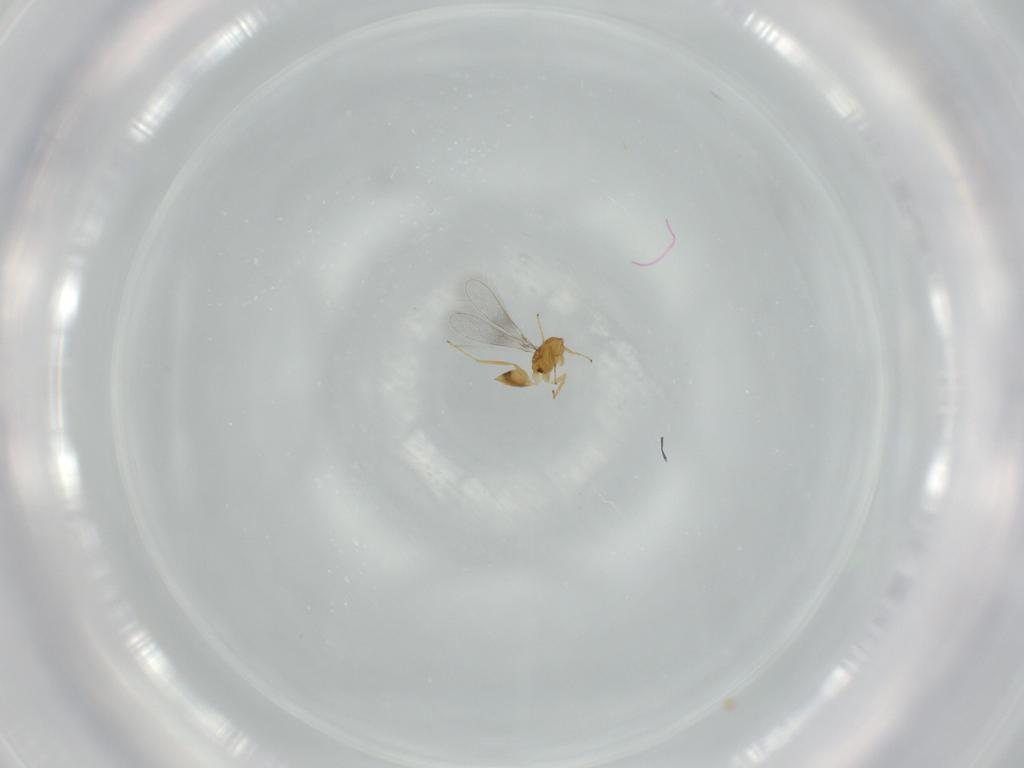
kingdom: Animalia
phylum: Arthropoda
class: Insecta
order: Hymenoptera
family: Mymaridae
